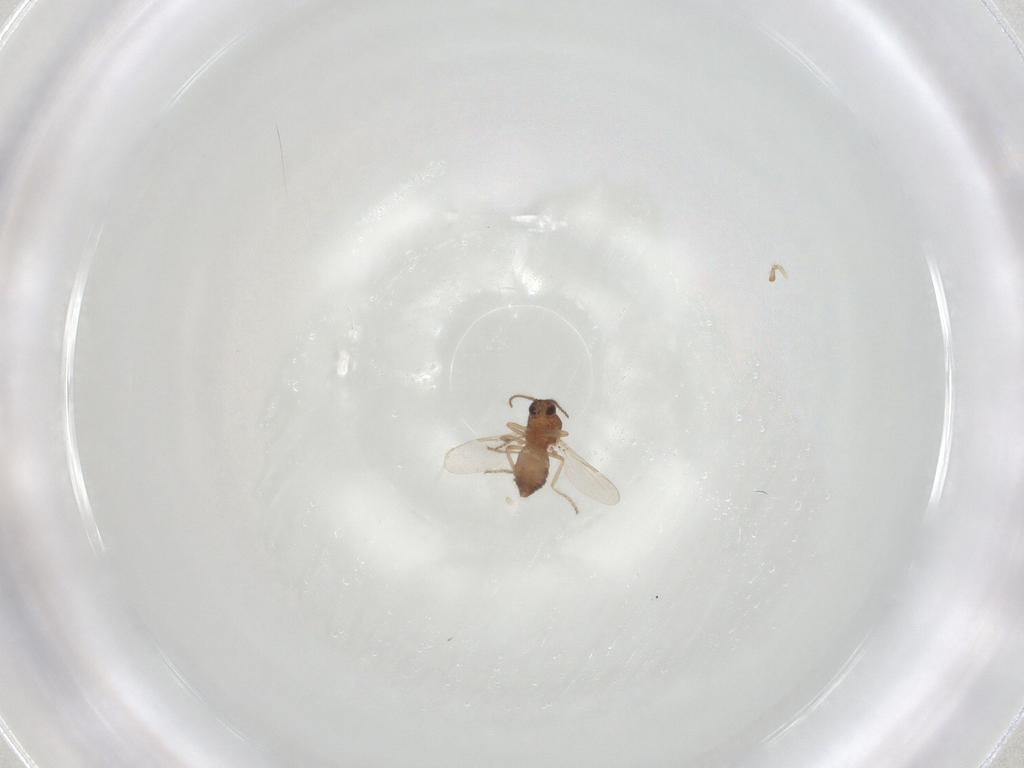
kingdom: Animalia
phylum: Arthropoda
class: Insecta
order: Diptera
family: Ceratopogonidae
